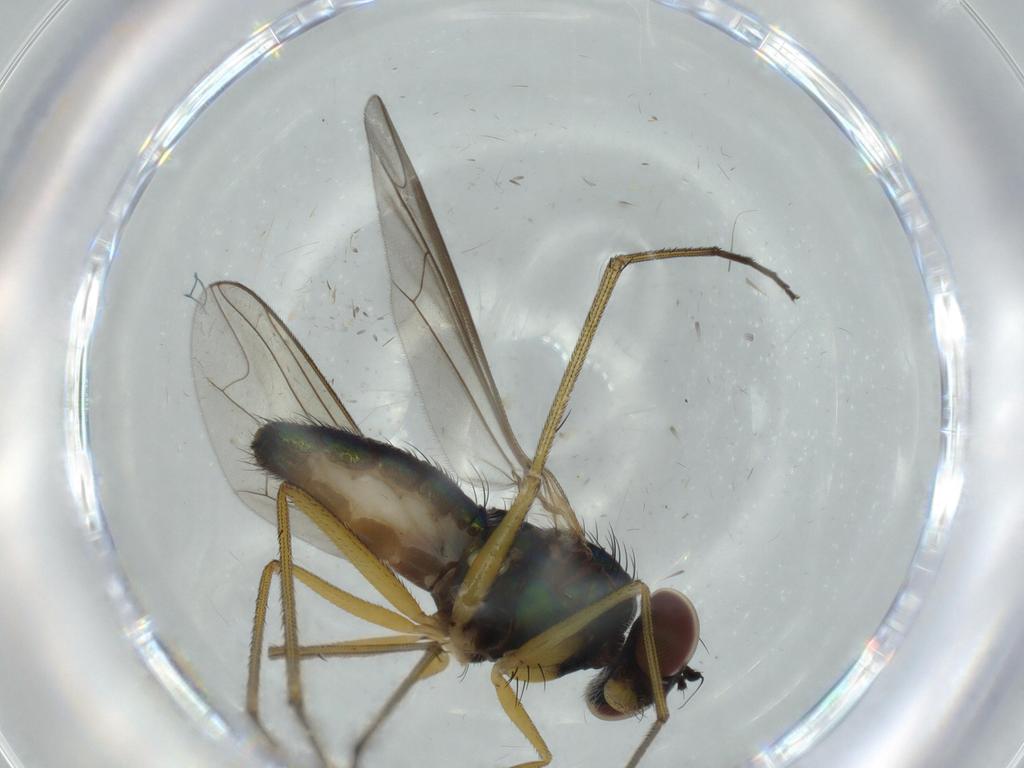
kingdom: Animalia
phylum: Arthropoda
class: Insecta
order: Diptera
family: Dolichopodidae
